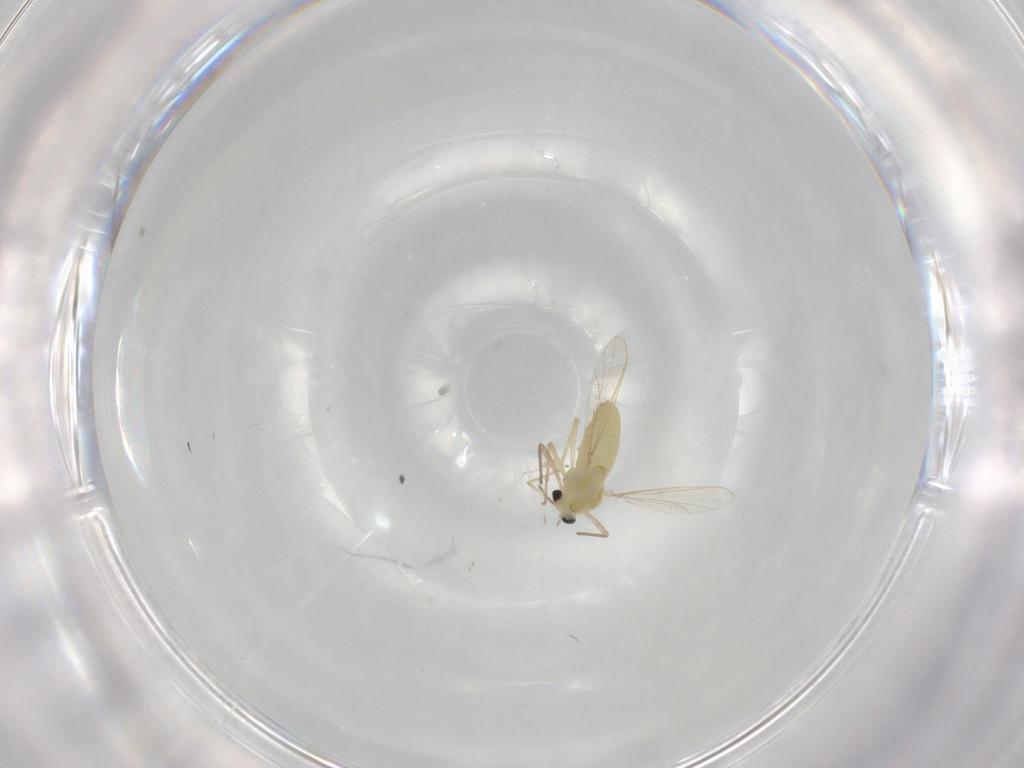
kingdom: Animalia
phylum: Arthropoda
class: Insecta
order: Diptera
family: Chironomidae
